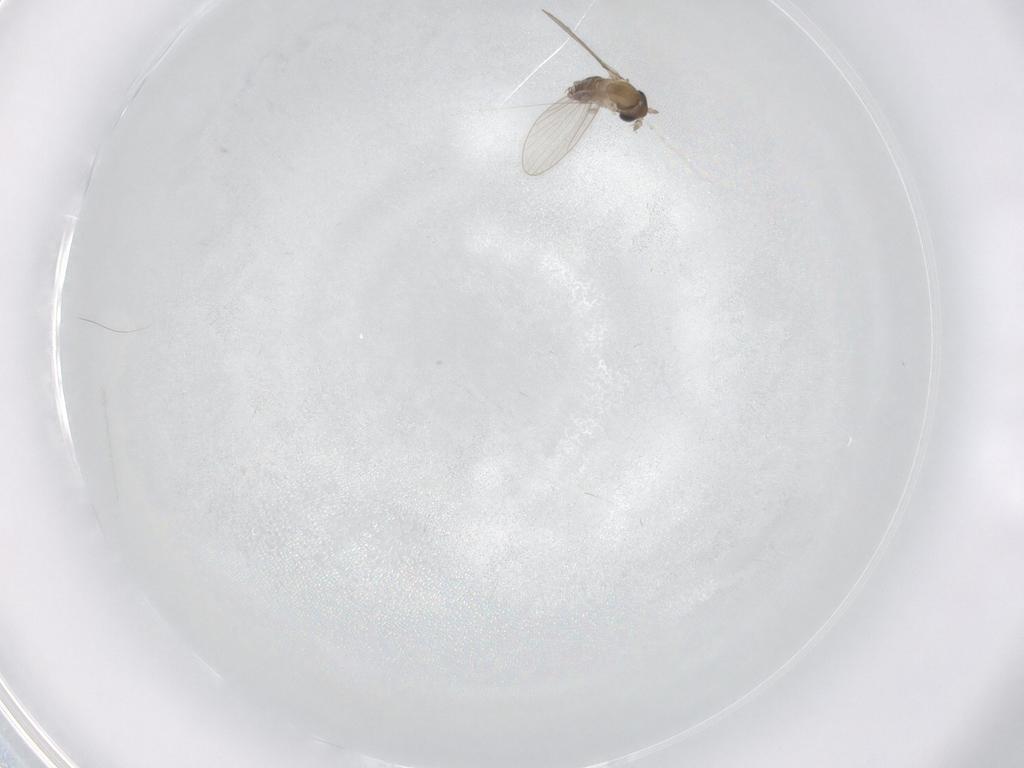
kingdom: Animalia
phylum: Arthropoda
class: Insecta
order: Diptera
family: Cecidomyiidae
